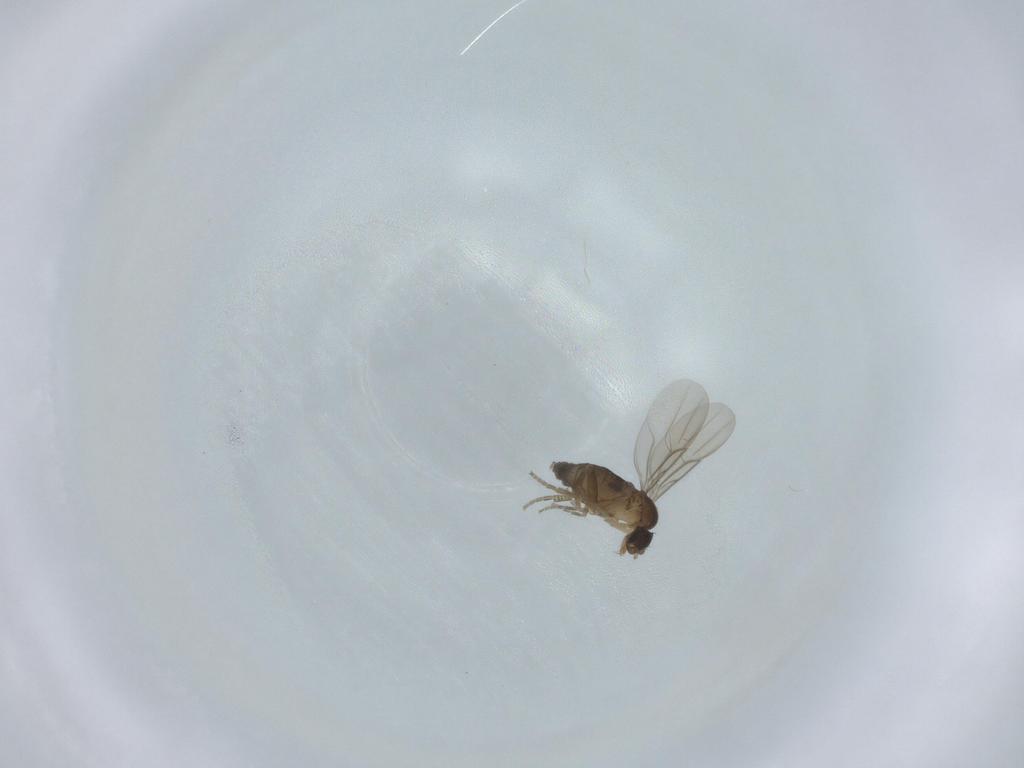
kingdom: Animalia
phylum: Arthropoda
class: Insecta
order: Diptera
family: Phoridae
